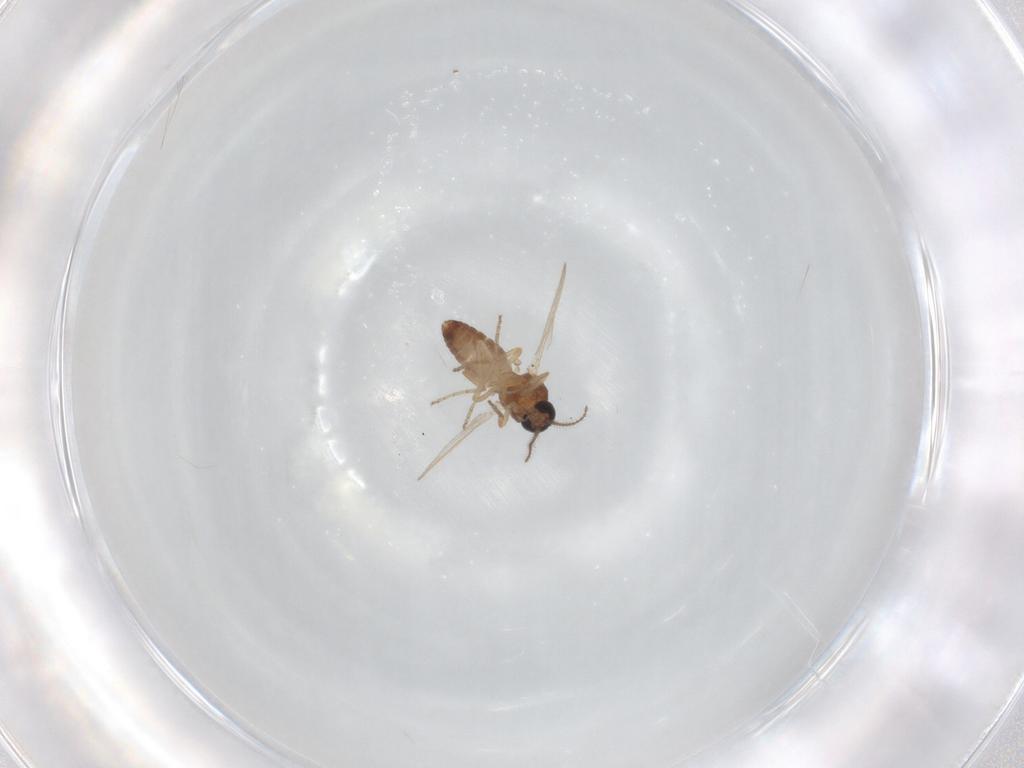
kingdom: Animalia
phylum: Arthropoda
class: Insecta
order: Diptera
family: Ceratopogonidae
